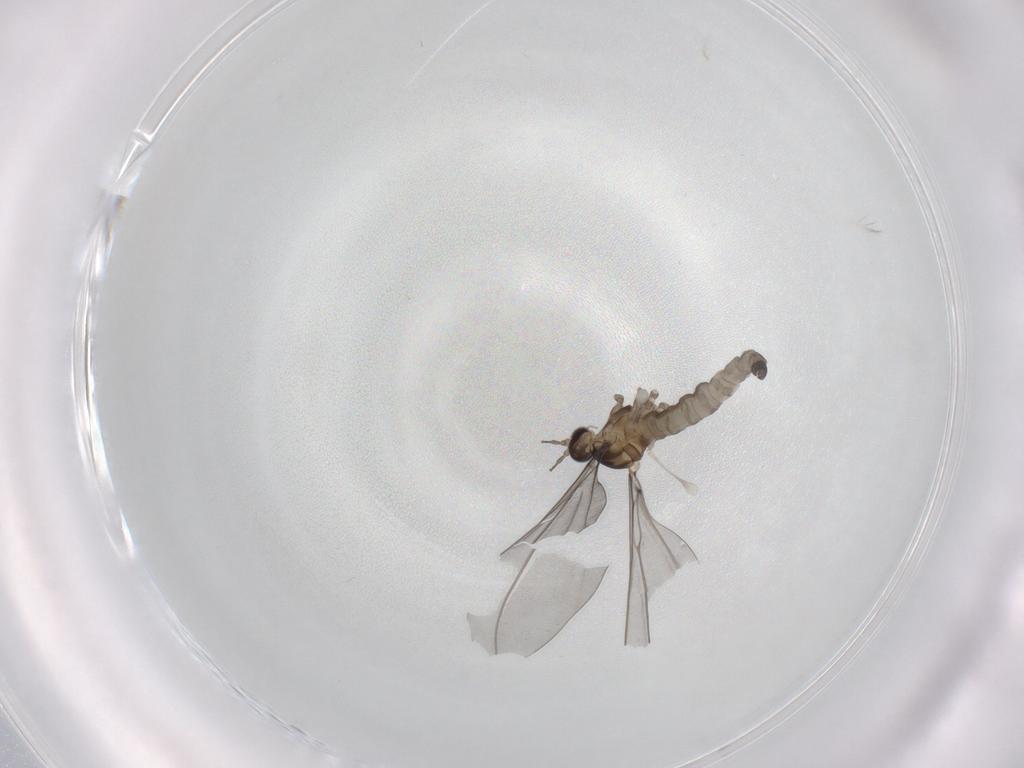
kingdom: Animalia
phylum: Arthropoda
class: Insecta
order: Diptera
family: Cecidomyiidae
